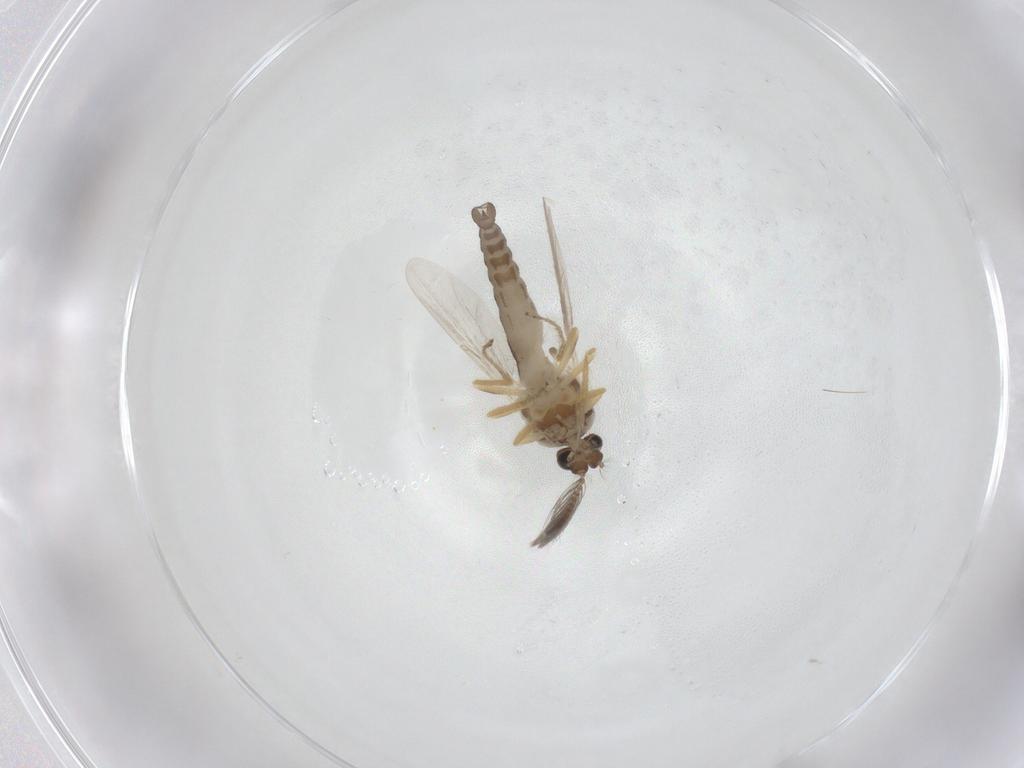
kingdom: Animalia
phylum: Arthropoda
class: Insecta
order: Diptera
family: Ceratopogonidae
